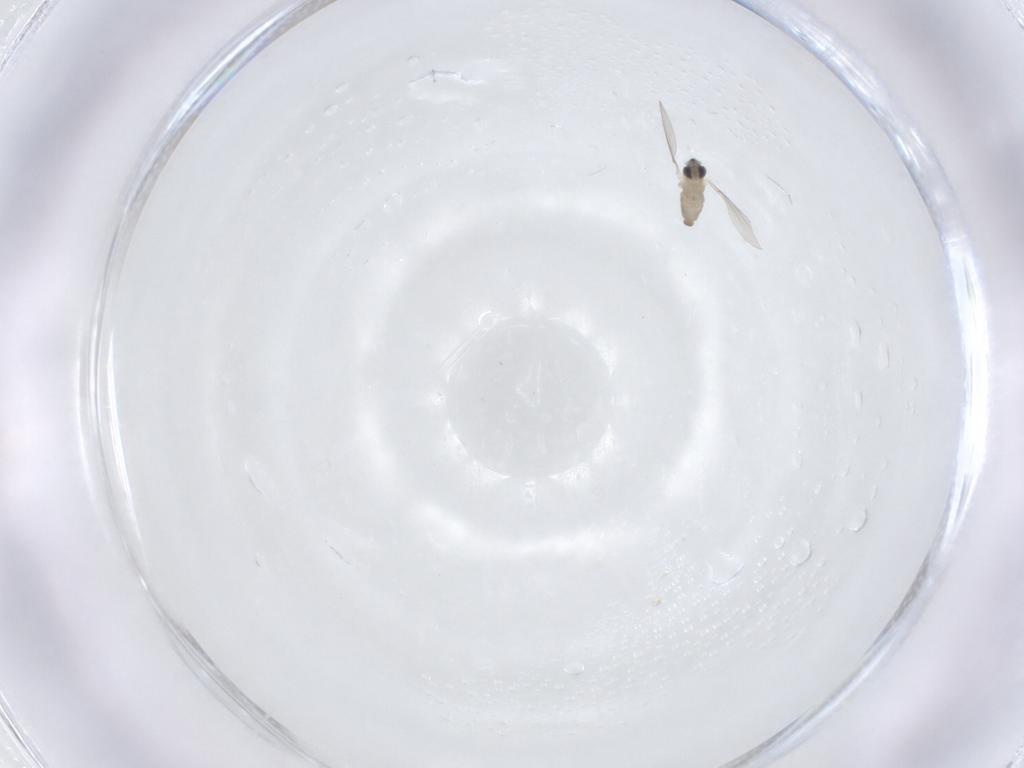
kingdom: Animalia
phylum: Arthropoda
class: Insecta
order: Diptera
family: Cecidomyiidae
